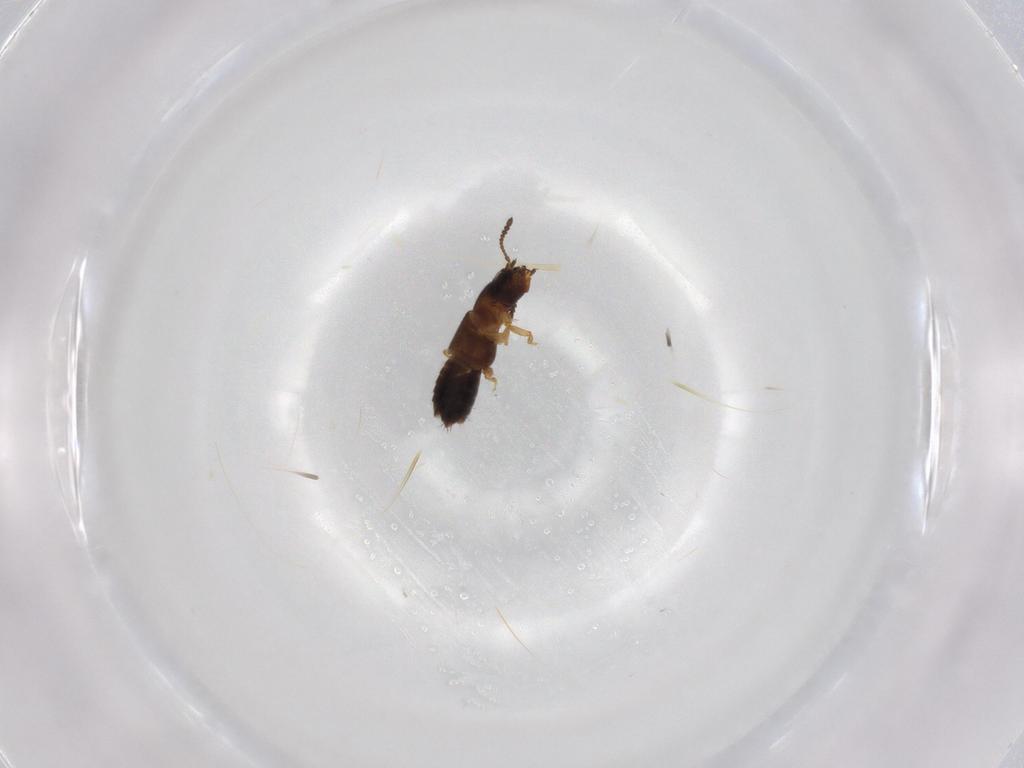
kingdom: Animalia
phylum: Arthropoda
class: Insecta
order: Coleoptera
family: Staphylinidae
